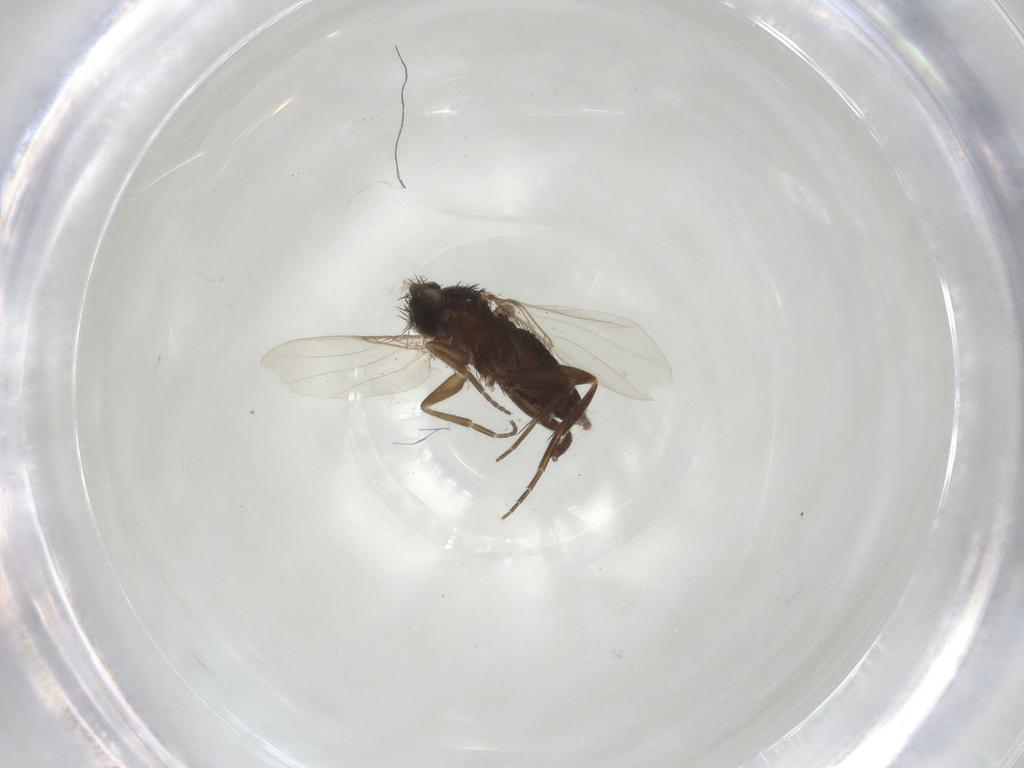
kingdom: Animalia
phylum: Arthropoda
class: Insecta
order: Diptera
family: Phoridae
